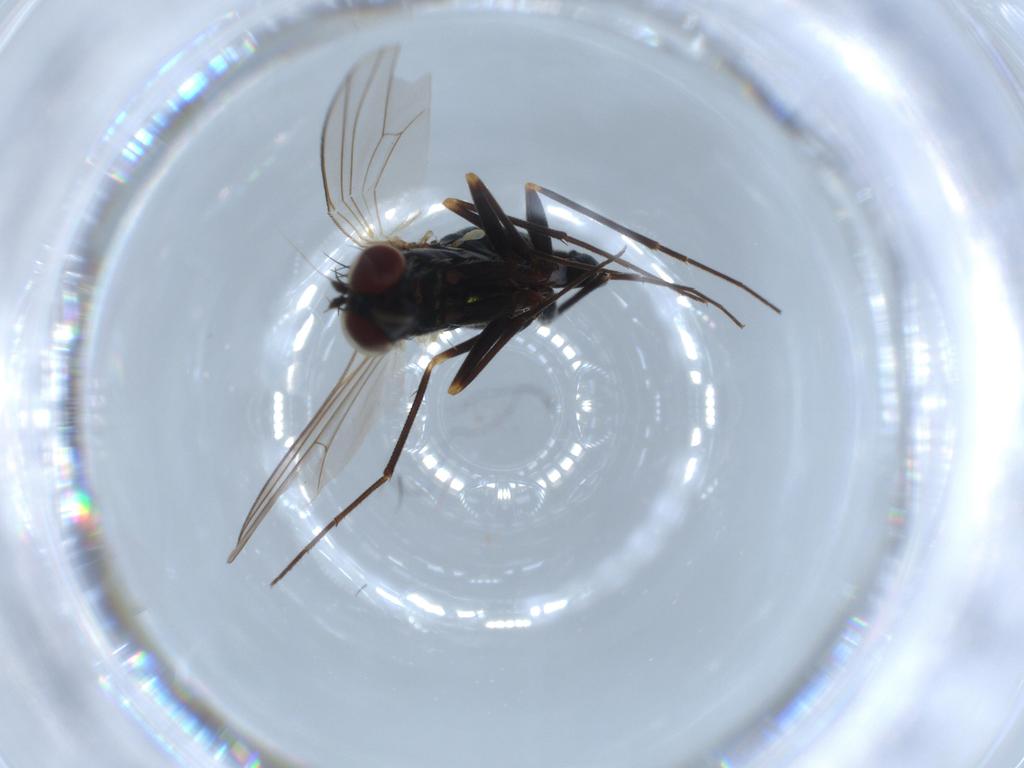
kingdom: Animalia
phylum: Arthropoda
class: Insecta
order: Diptera
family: Dolichopodidae
